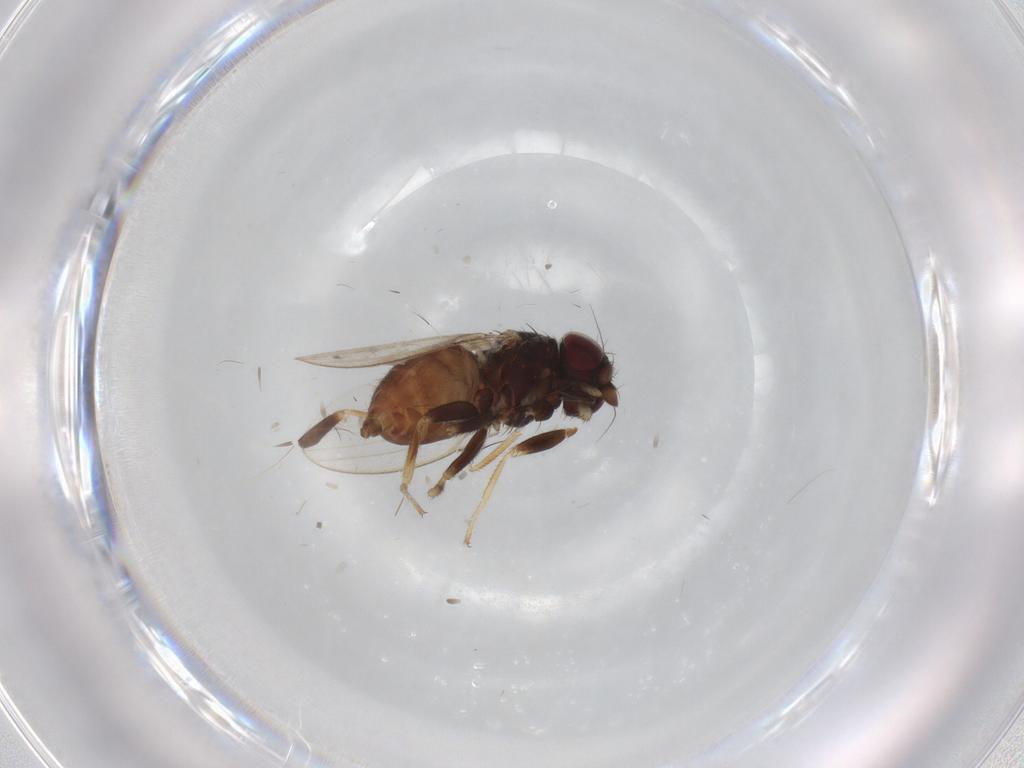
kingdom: Animalia
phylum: Arthropoda
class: Insecta
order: Diptera
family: Milichiidae
